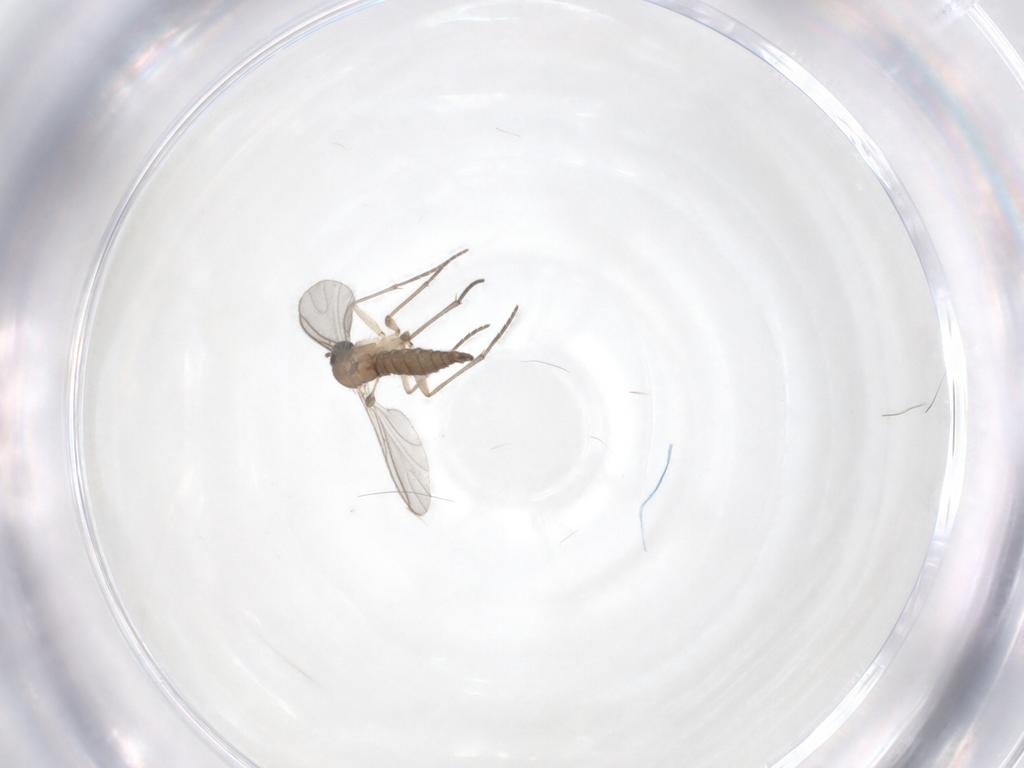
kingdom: Animalia
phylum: Arthropoda
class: Insecta
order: Diptera
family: Sciaridae
